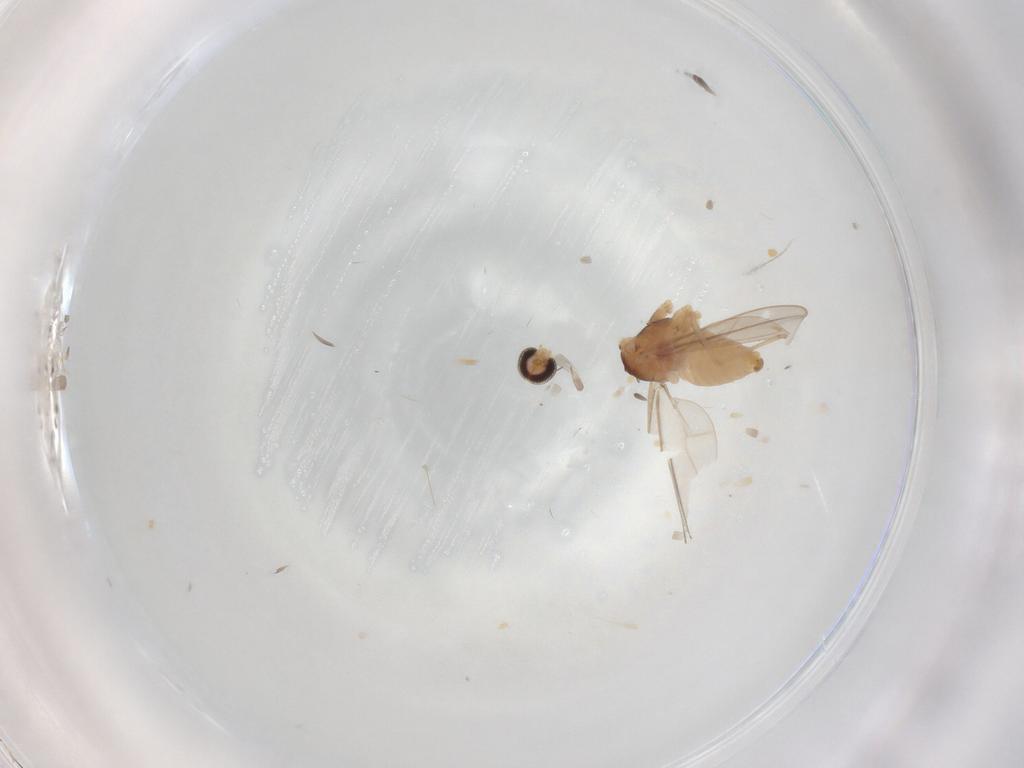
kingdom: Animalia
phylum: Arthropoda
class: Insecta
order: Diptera
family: Cecidomyiidae
